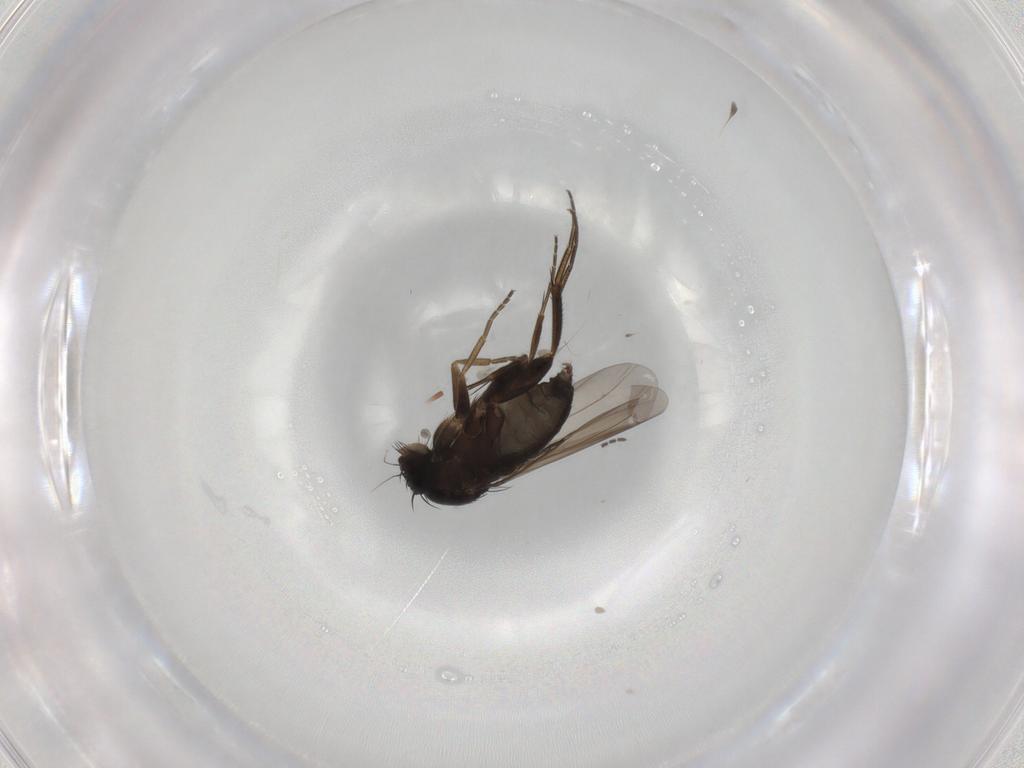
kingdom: Animalia
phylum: Arthropoda
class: Insecta
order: Diptera
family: Phoridae
